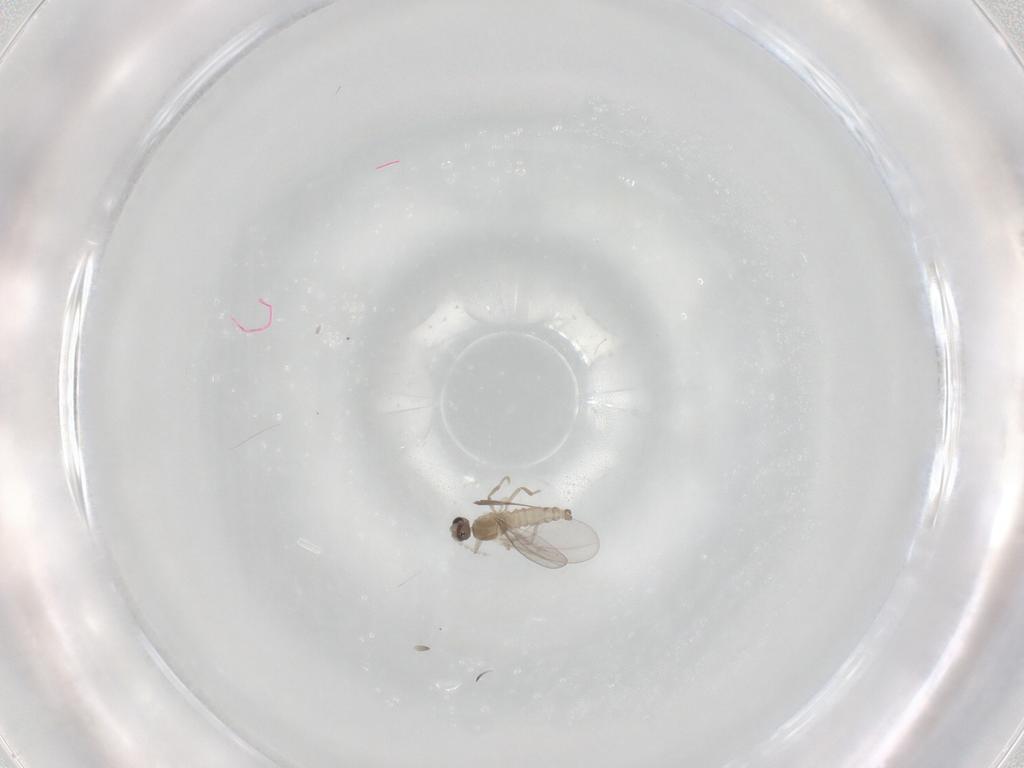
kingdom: Animalia
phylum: Arthropoda
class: Insecta
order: Diptera
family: Cecidomyiidae
